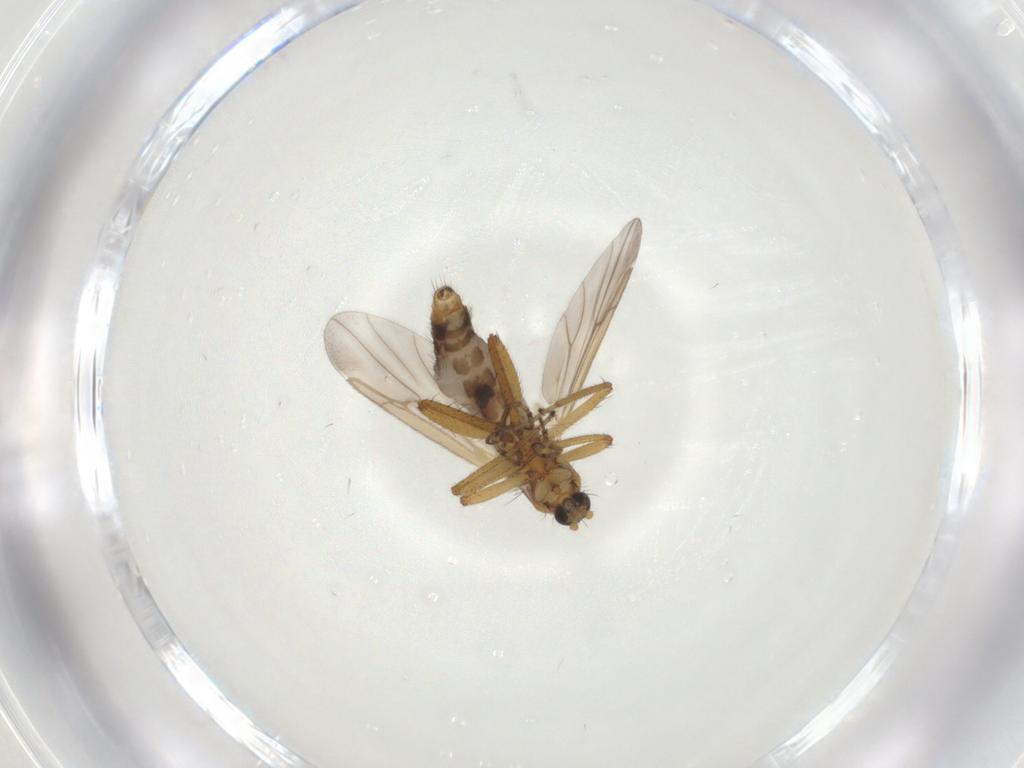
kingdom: Animalia
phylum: Arthropoda
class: Insecta
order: Diptera
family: Ceratopogonidae
